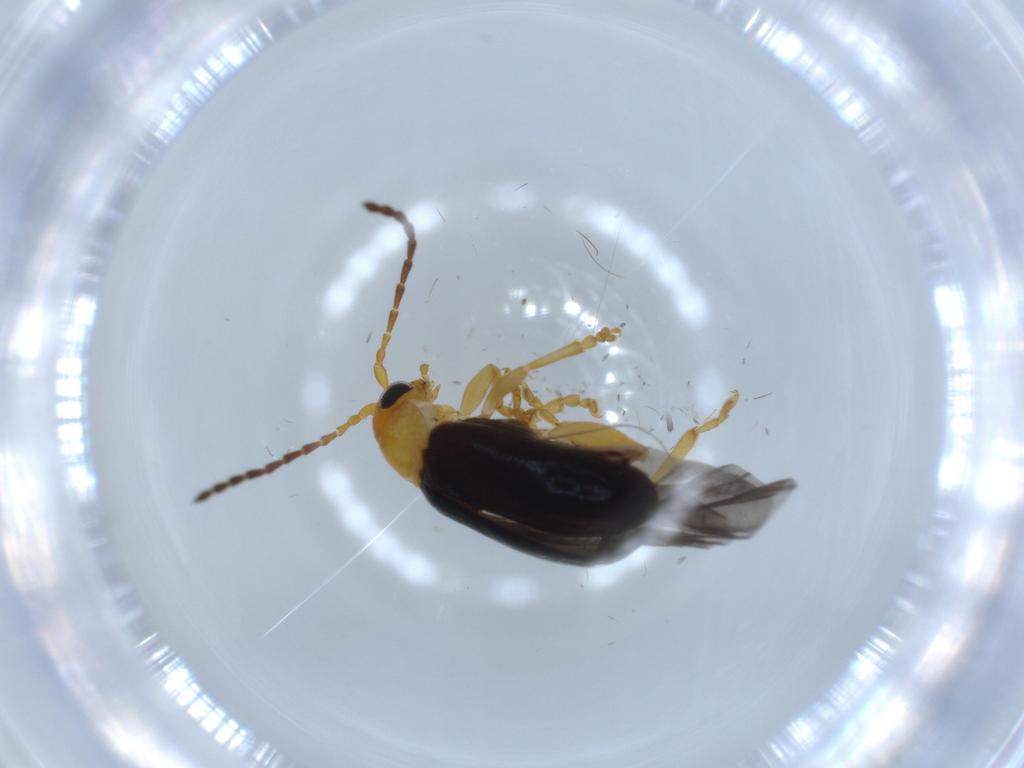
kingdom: Animalia
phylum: Arthropoda
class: Insecta
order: Coleoptera
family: Chrysomelidae
